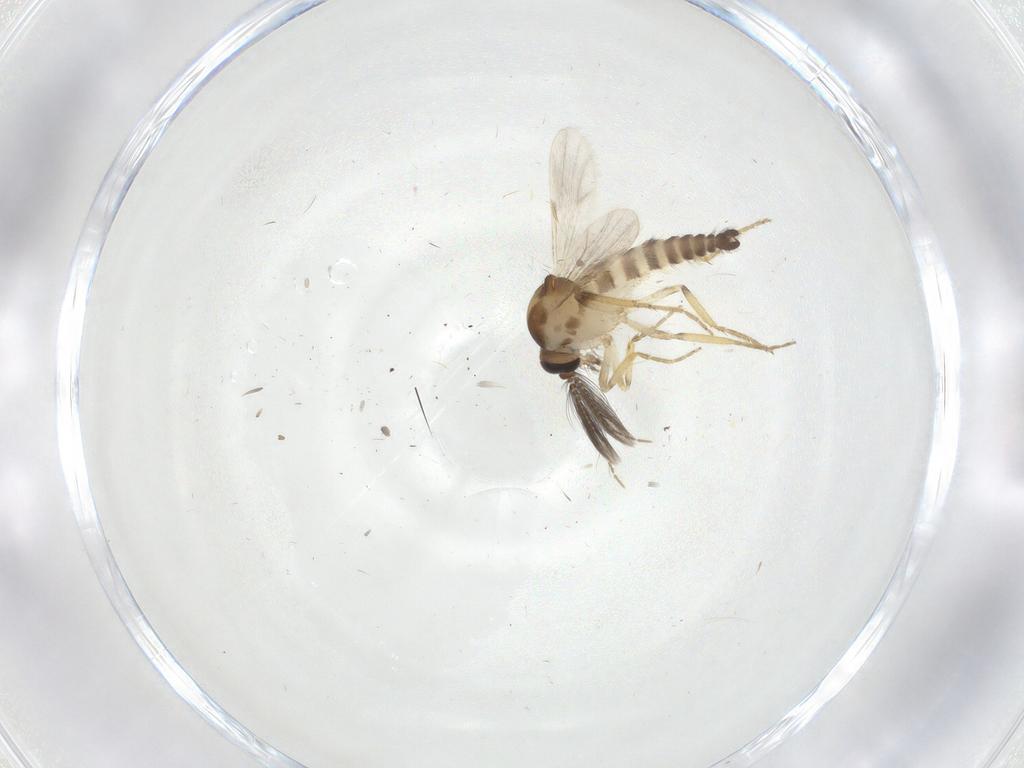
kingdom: Animalia
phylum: Arthropoda
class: Insecta
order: Diptera
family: Ceratopogonidae
